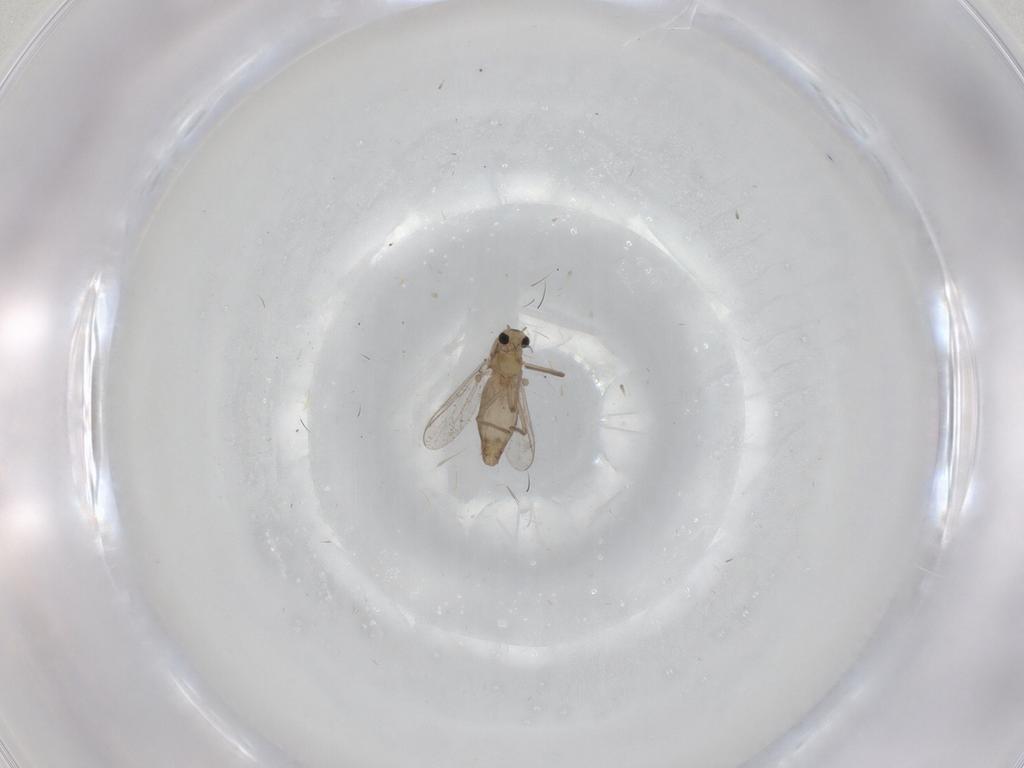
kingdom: Animalia
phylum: Arthropoda
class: Insecta
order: Diptera
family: Chironomidae
